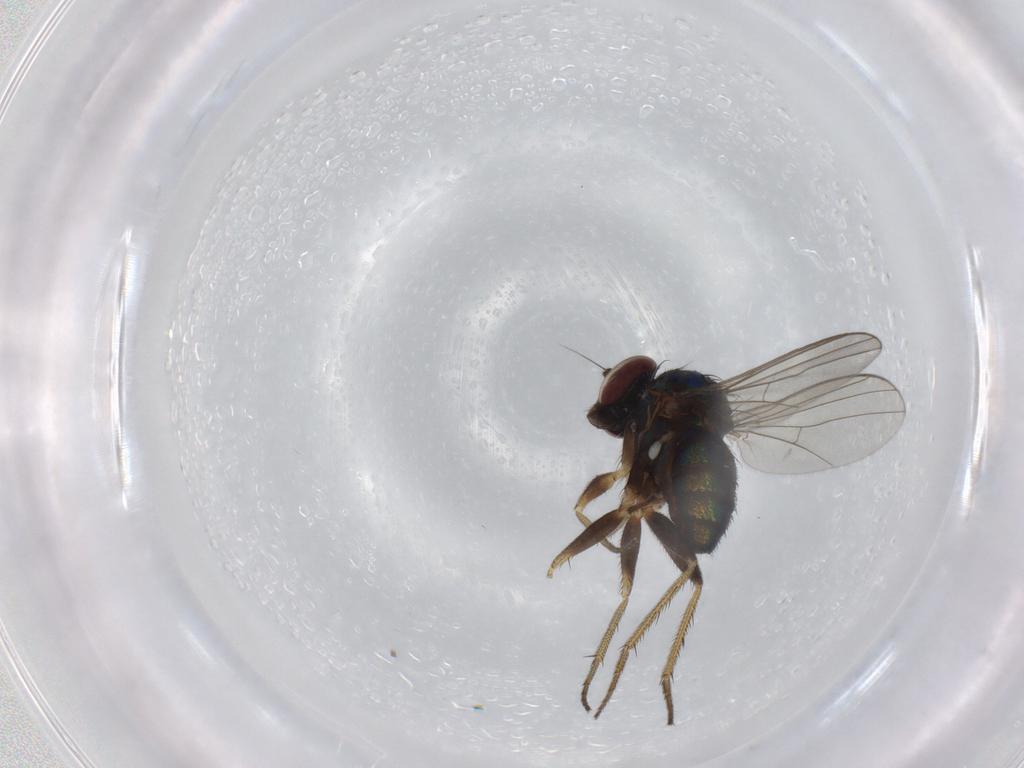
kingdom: Animalia
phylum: Arthropoda
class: Insecta
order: Diptera
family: Dolichopodidae
